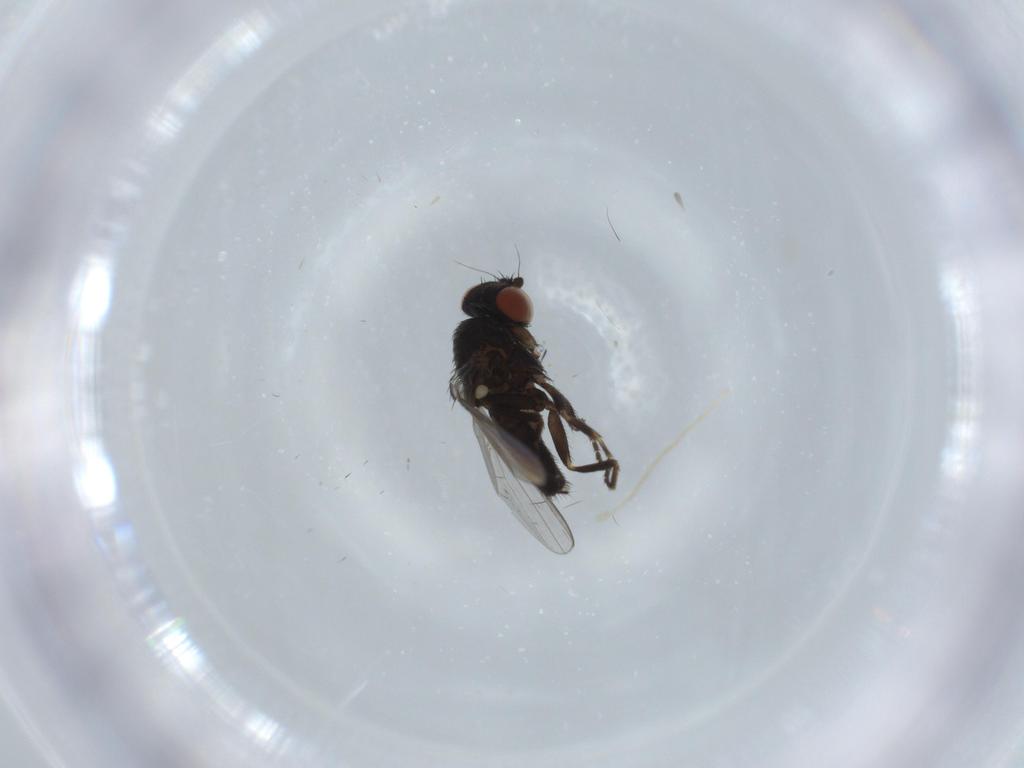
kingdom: Animalia
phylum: Arthropoda
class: Insecta
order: Diptera
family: Milichiidae
